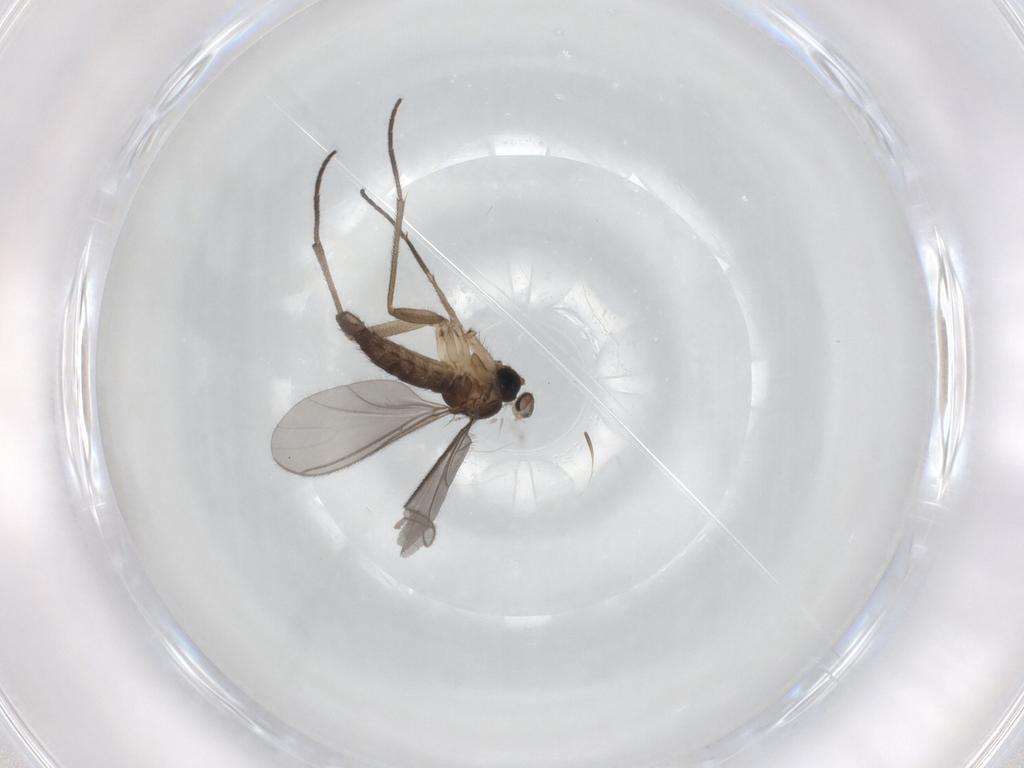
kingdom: Animalia
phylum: Arthropoda
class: Insecta
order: Diptera
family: Sciaridae
